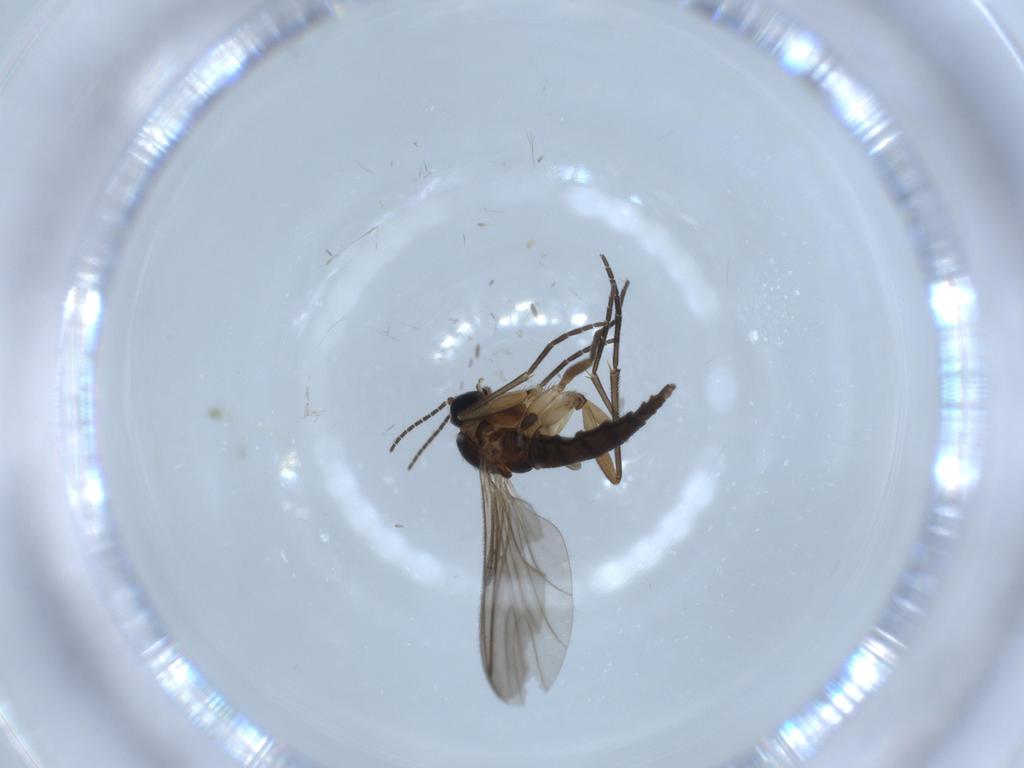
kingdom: Animalia
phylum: Arthropoda
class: Insecta
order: Diptera
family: Sciaridae
